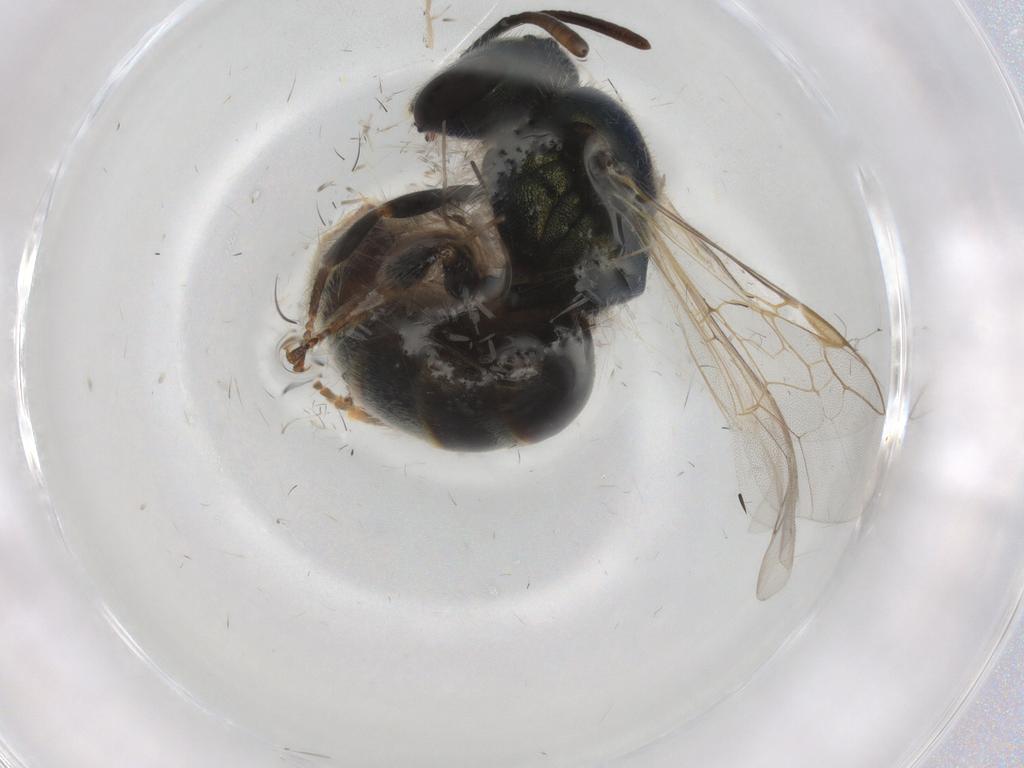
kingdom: Animalia
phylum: Arthropoda
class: Insecta
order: Hymenoptera
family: Halictidae
